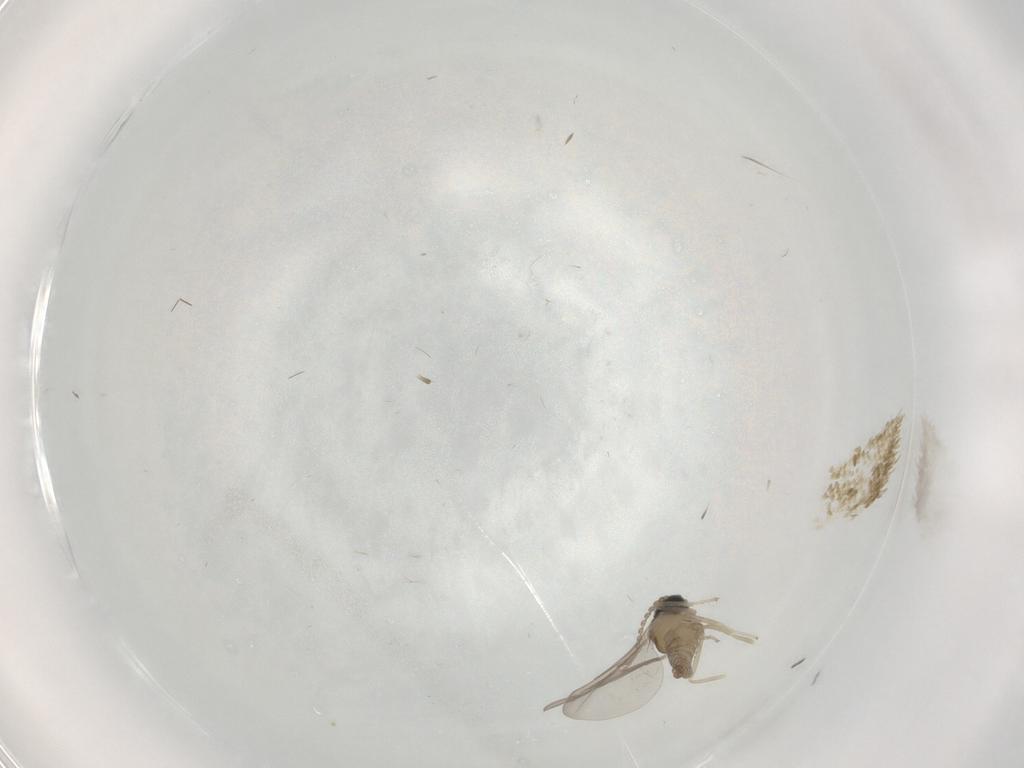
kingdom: Animalia
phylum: Arthropoda
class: Insecta
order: Diptera
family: Cecidomyiidae
